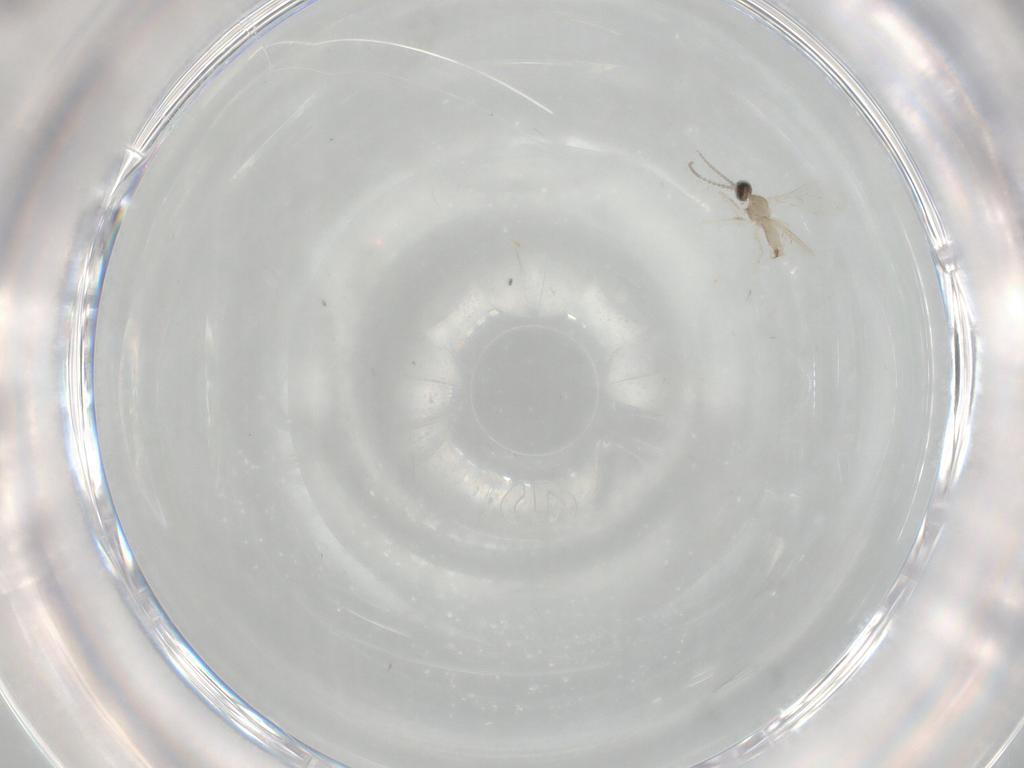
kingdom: Animalia
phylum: Arthropoda
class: Insecta
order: Diptera
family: Cecidomyiidae
